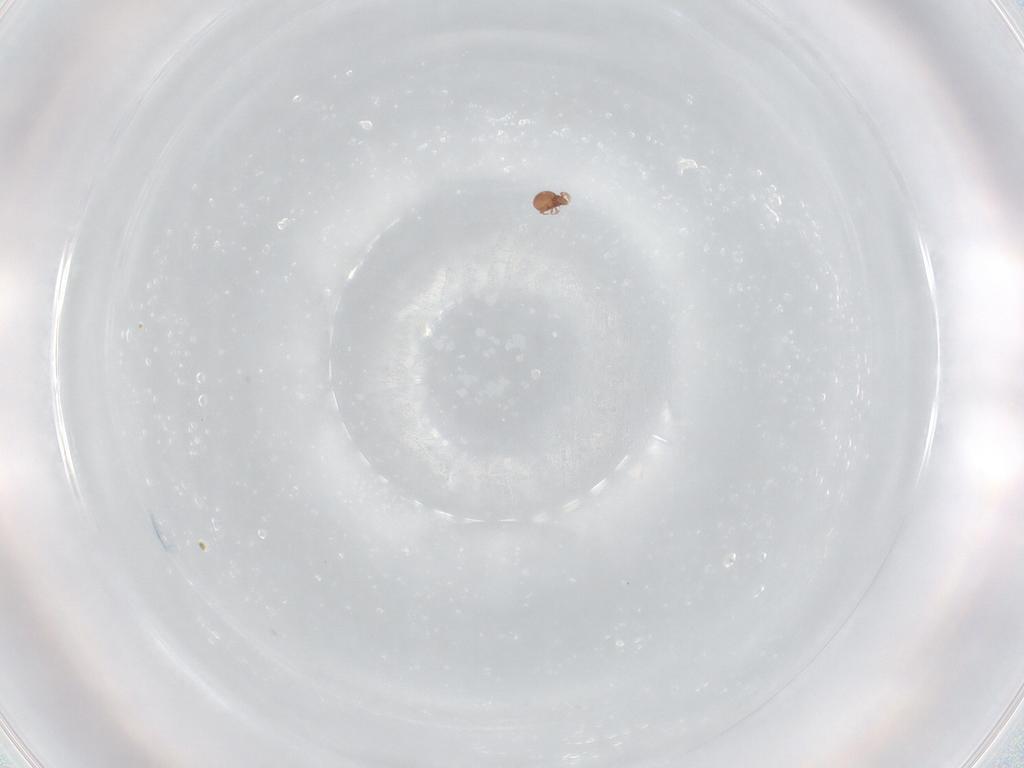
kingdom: Animalia
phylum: Arthropoda
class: Arachnida
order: Sarcoptiformes
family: Oppiidae
